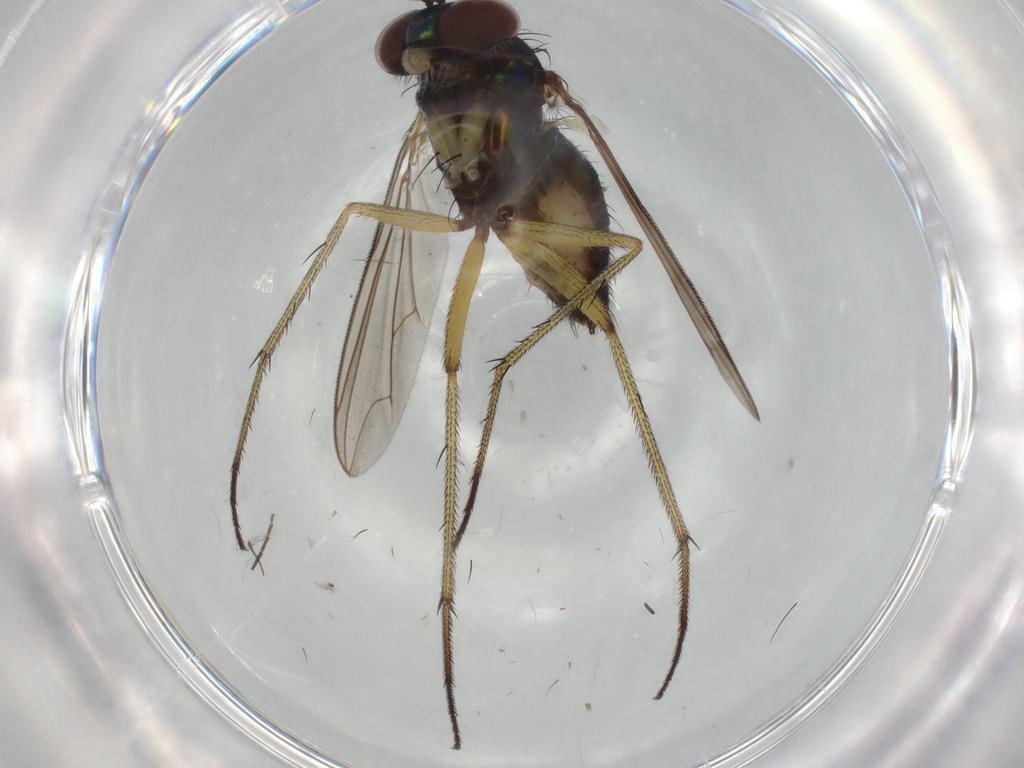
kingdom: Animalia
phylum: Arthropoda
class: Insecta
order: Diptera
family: Dolichopodidae
